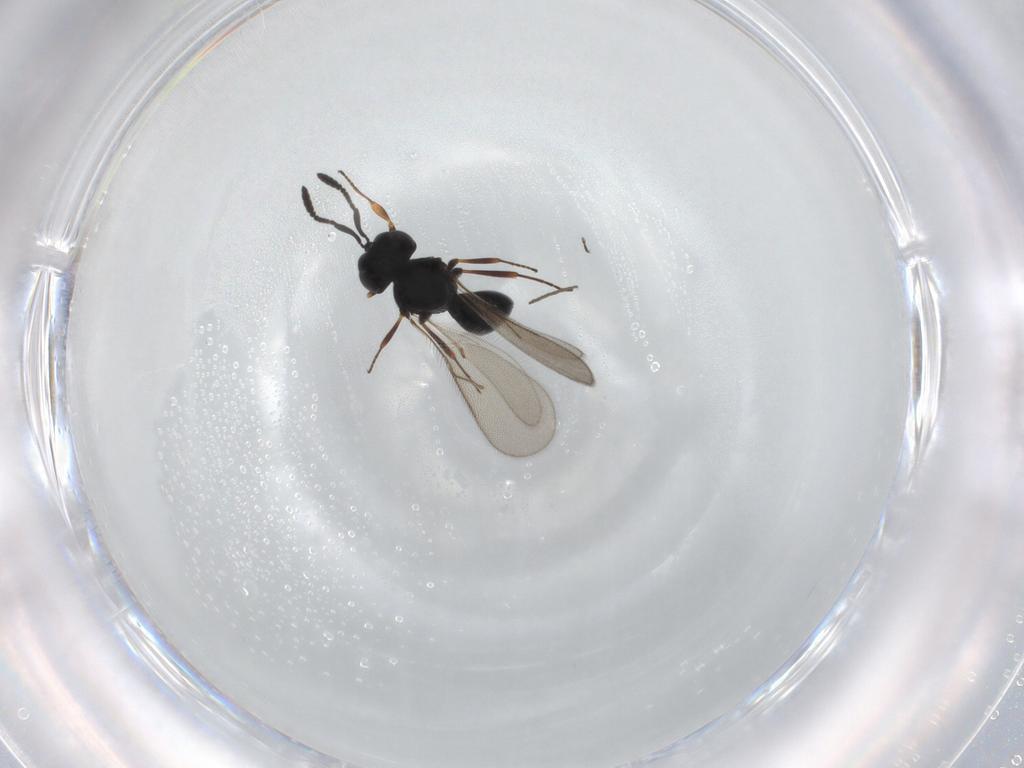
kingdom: Animalia
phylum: Arthropoda
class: Insecta
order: Hymenoptera
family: Scelionidae
